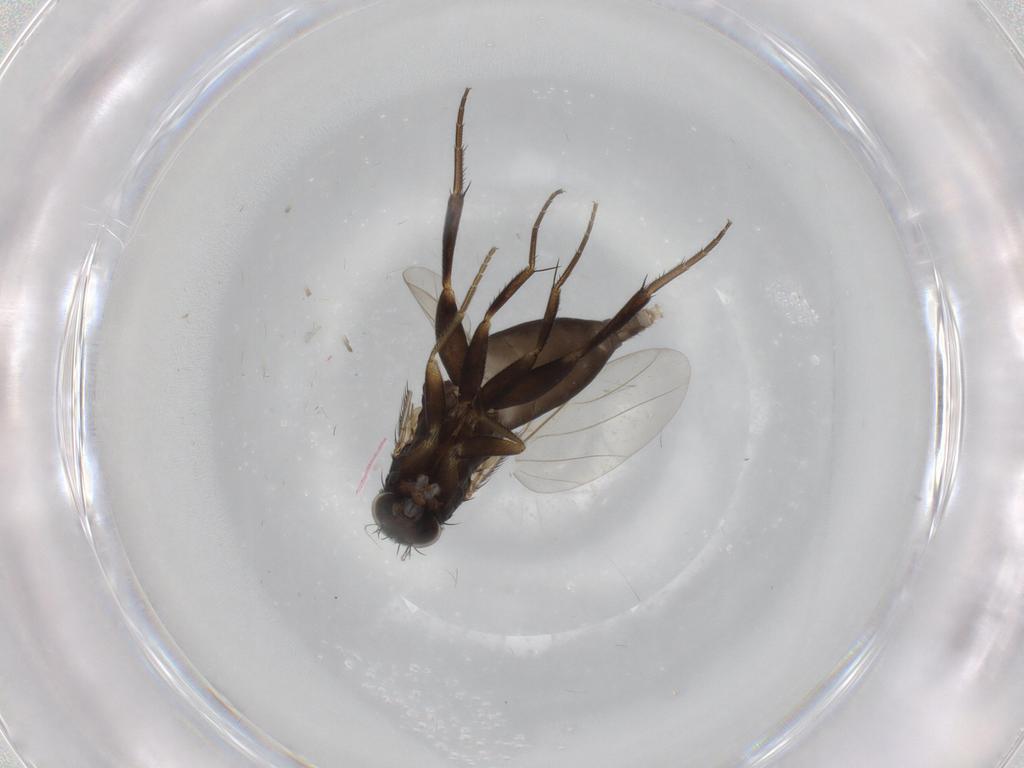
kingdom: Animalia
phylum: Arthropoda
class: Insecta
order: Diptera
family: Phoridae
